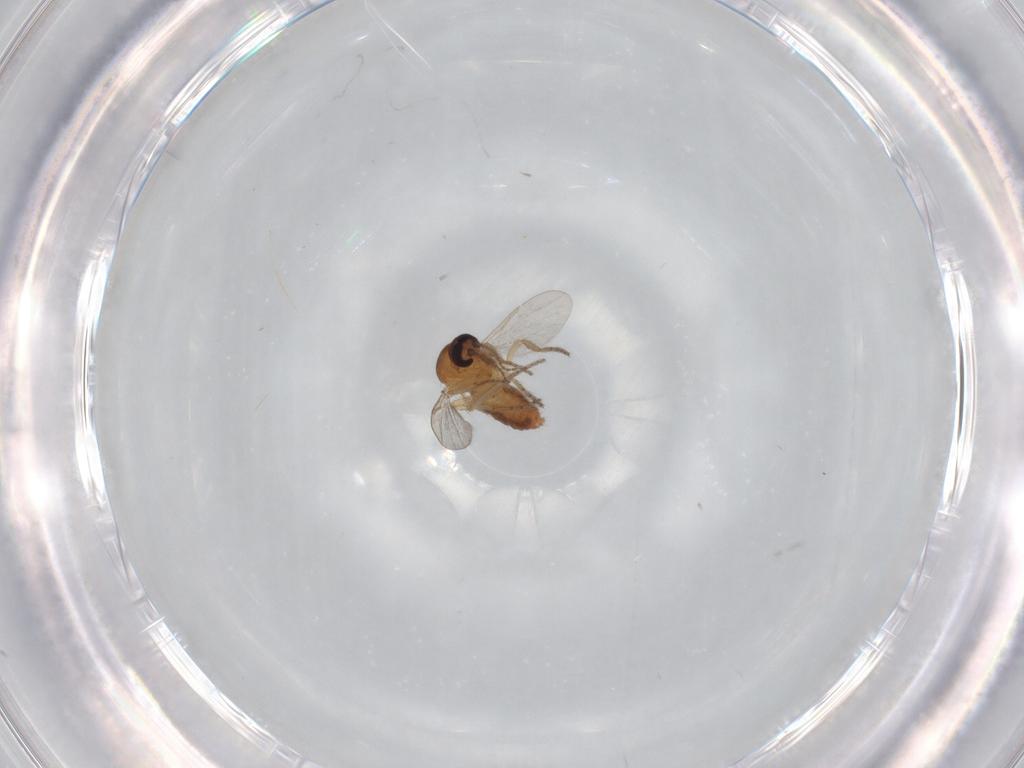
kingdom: Animalia
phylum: Arthropoda
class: Insecta
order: Diptera
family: Ceratopogonidae
